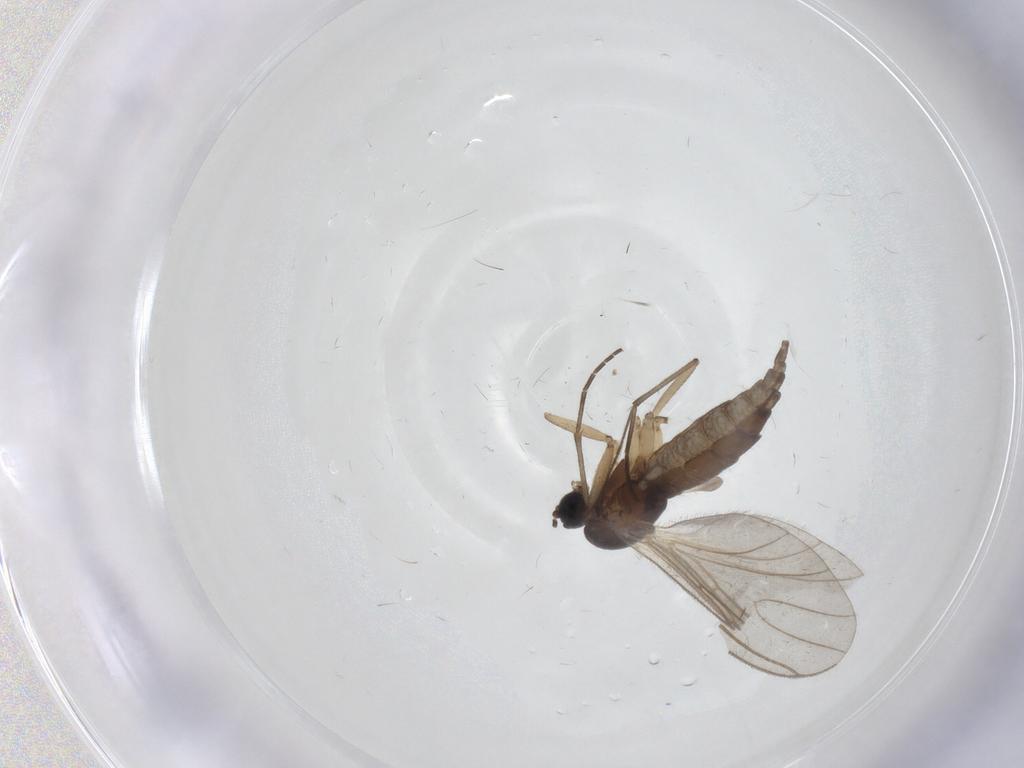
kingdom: Animalia
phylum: Arthropoda
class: Insecta
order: Diptera
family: Sciaridae
